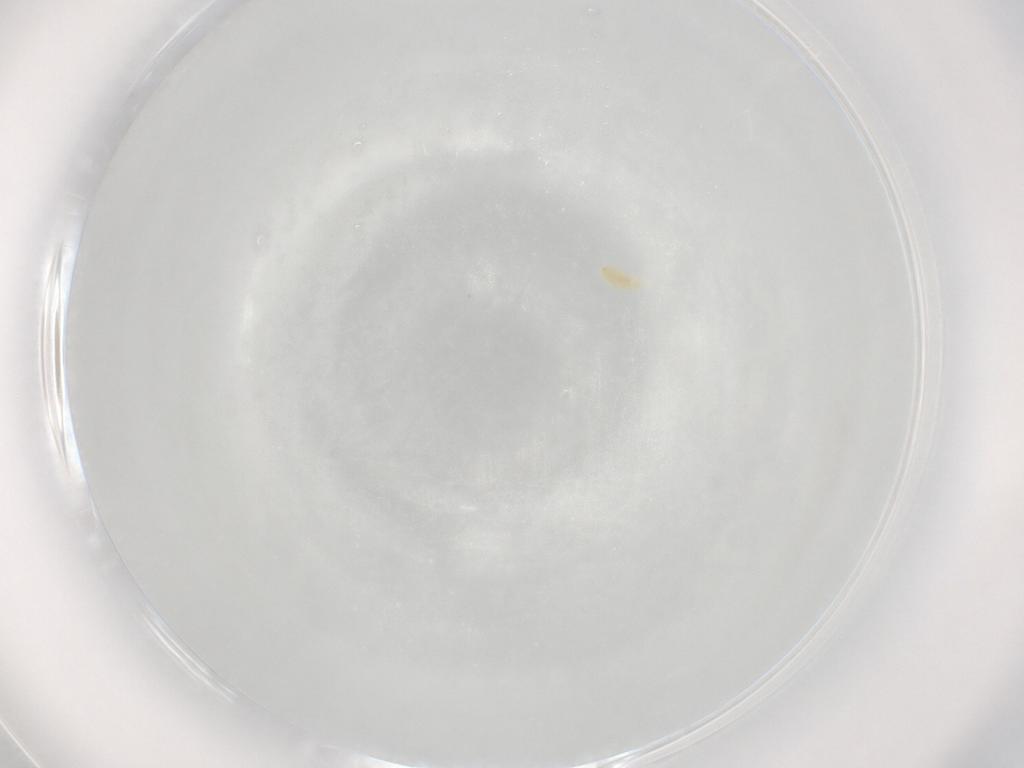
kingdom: Animalia
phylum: Arthropoda
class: Arachnida
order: Trombidiformes
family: Eupodidae
